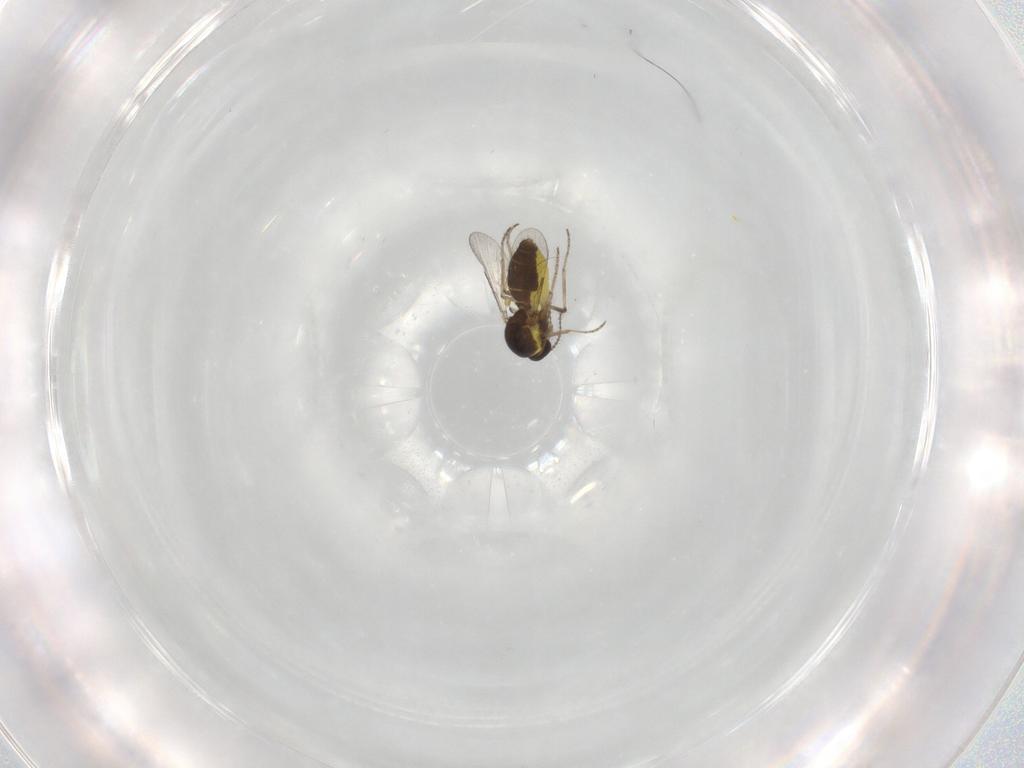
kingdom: Animalia
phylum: Arthropoda
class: Insecta
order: Diptera
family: Ceratopogonidae
